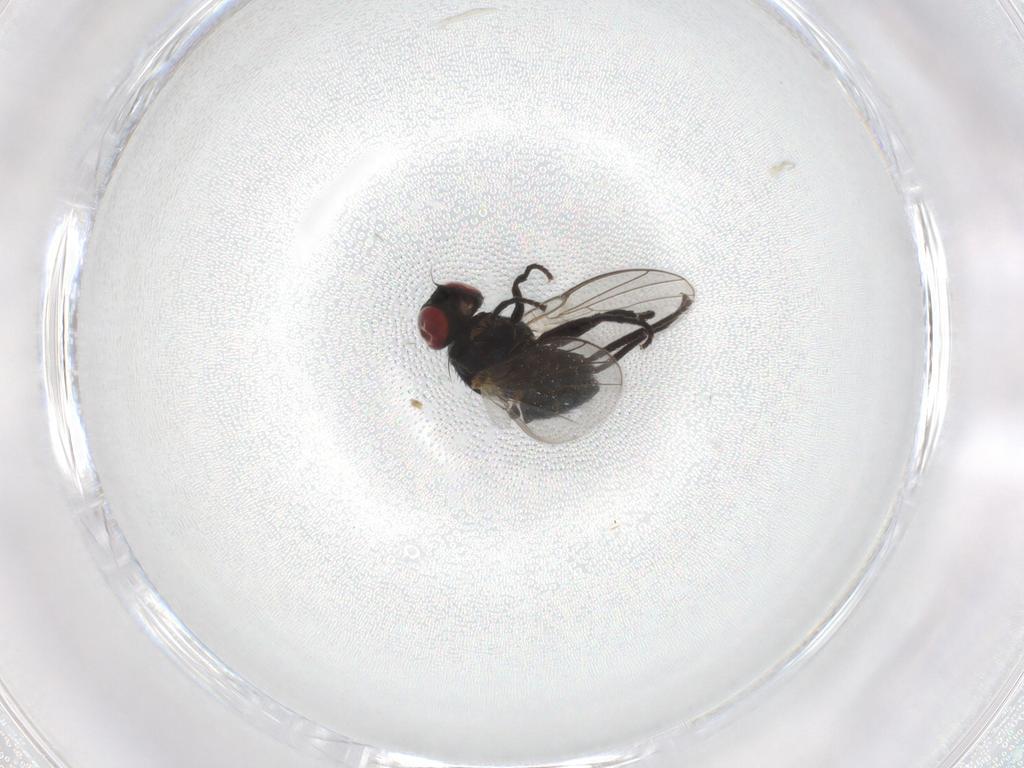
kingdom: Animalia
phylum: Arthropoda
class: Insecta
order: Diptera
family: Agromyzidae
